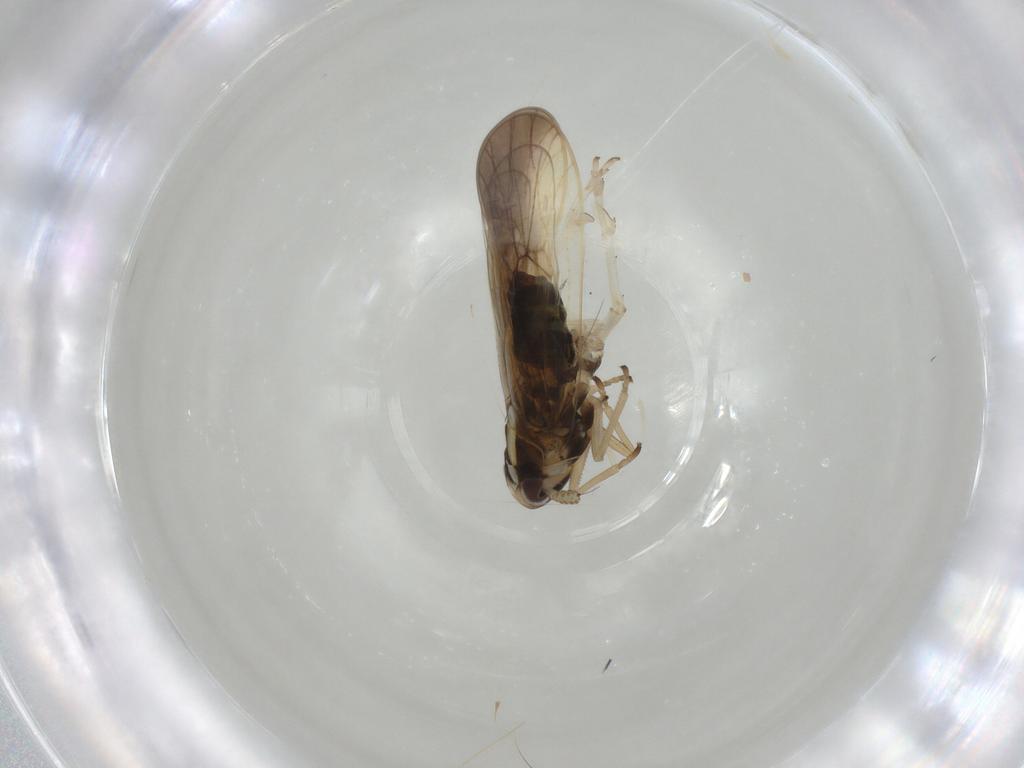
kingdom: Animalia
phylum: Arthropoda
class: Insecta
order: Hemiptera
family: Delphacidae
